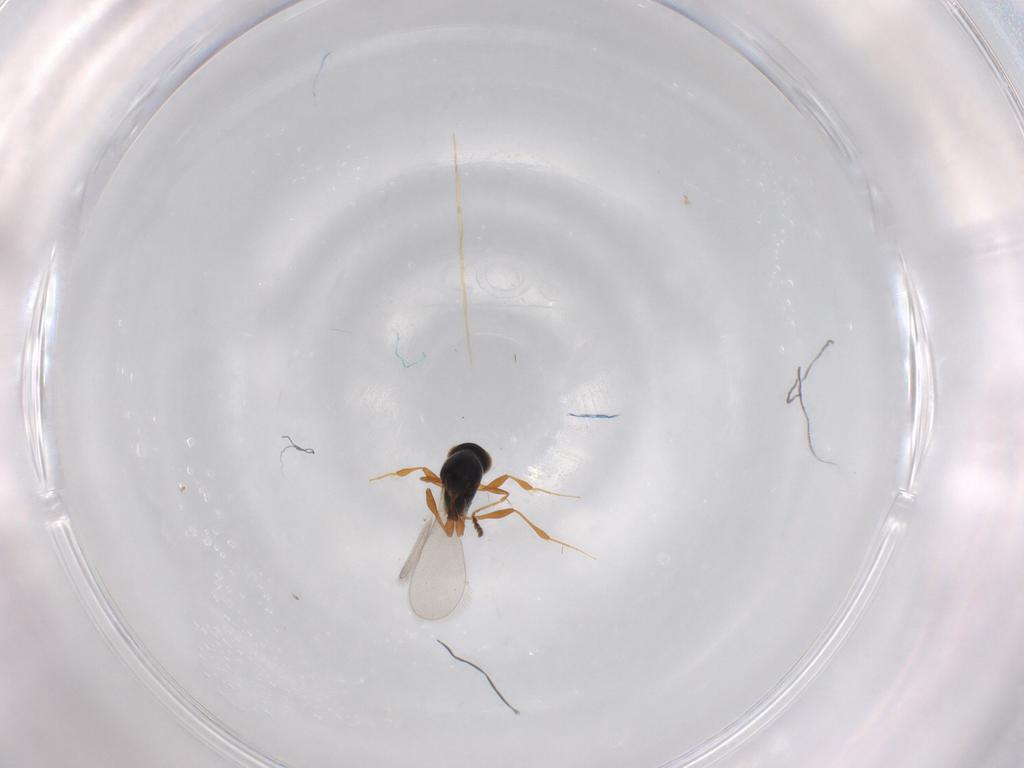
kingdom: Animalia
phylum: Arthropoda
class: Insecta
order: Hymenoptera
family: Platygastridae
